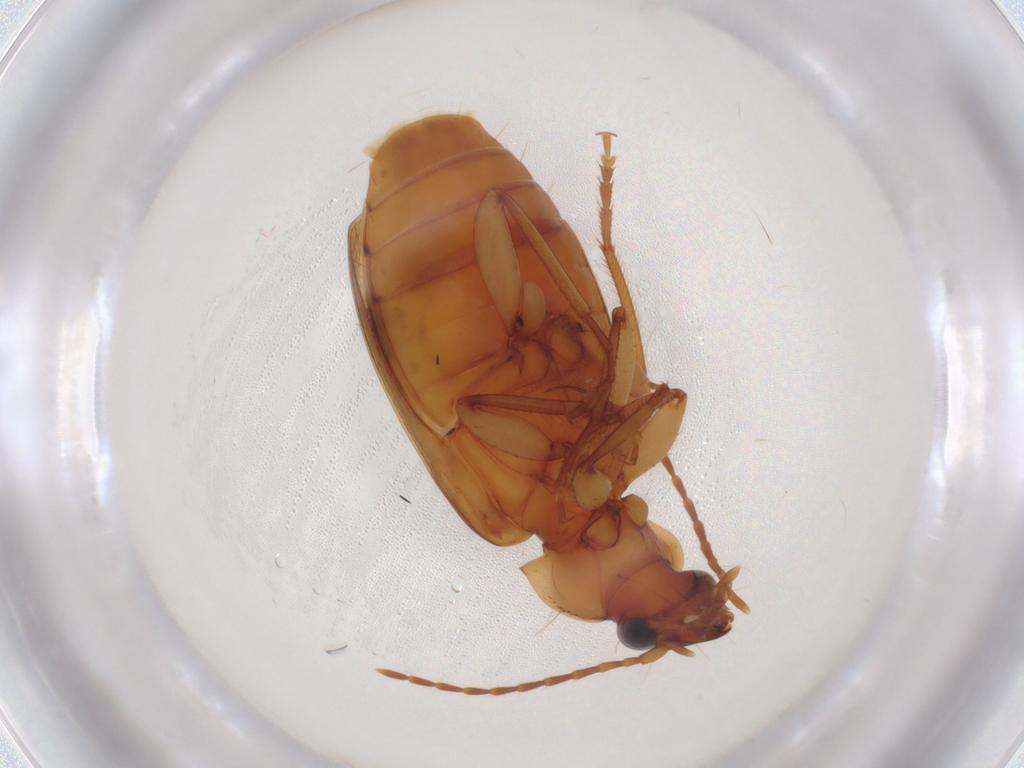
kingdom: Animalia
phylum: Arthropoda
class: Insecta
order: Coleoptera
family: Carabidae
